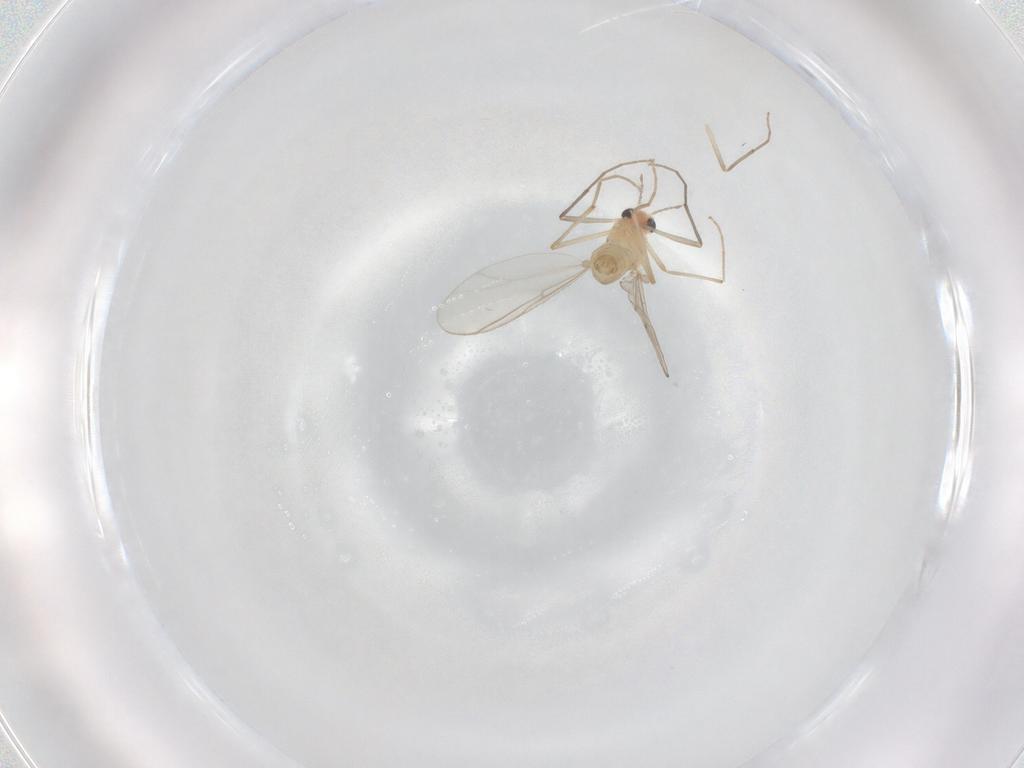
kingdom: Animalia
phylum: Arthropoda
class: Insecta
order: Diptera
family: Chironomidae
